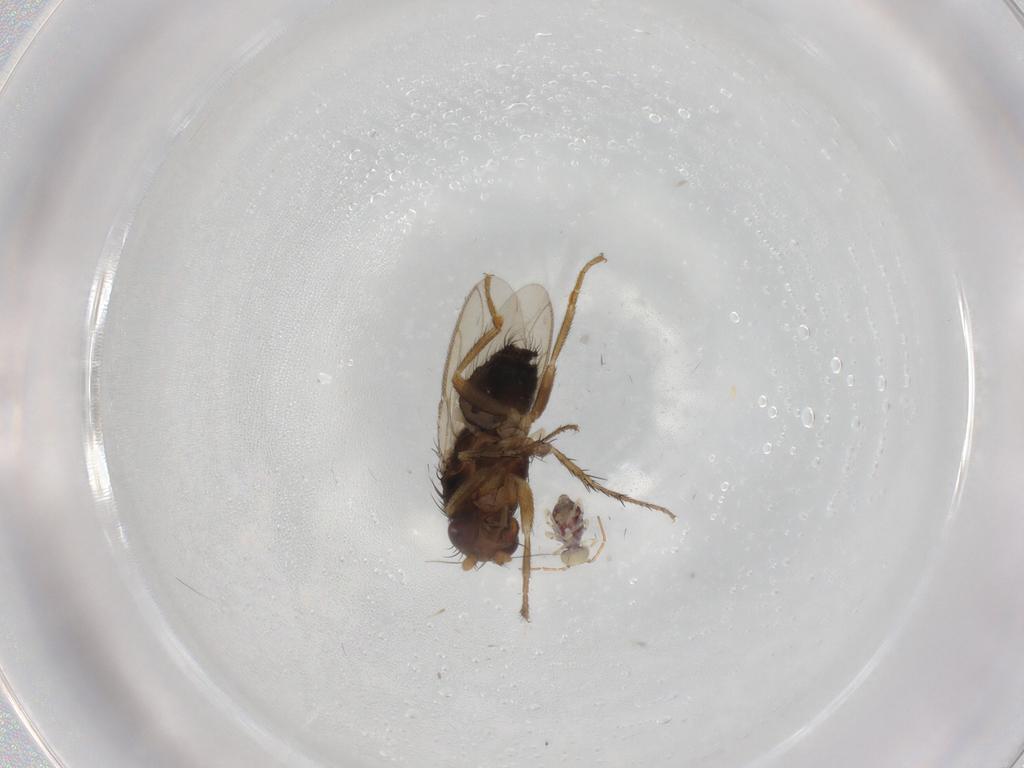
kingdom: Animalia
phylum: Arthropoda
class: Insecta
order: Diptera
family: Sphaeroceridae
